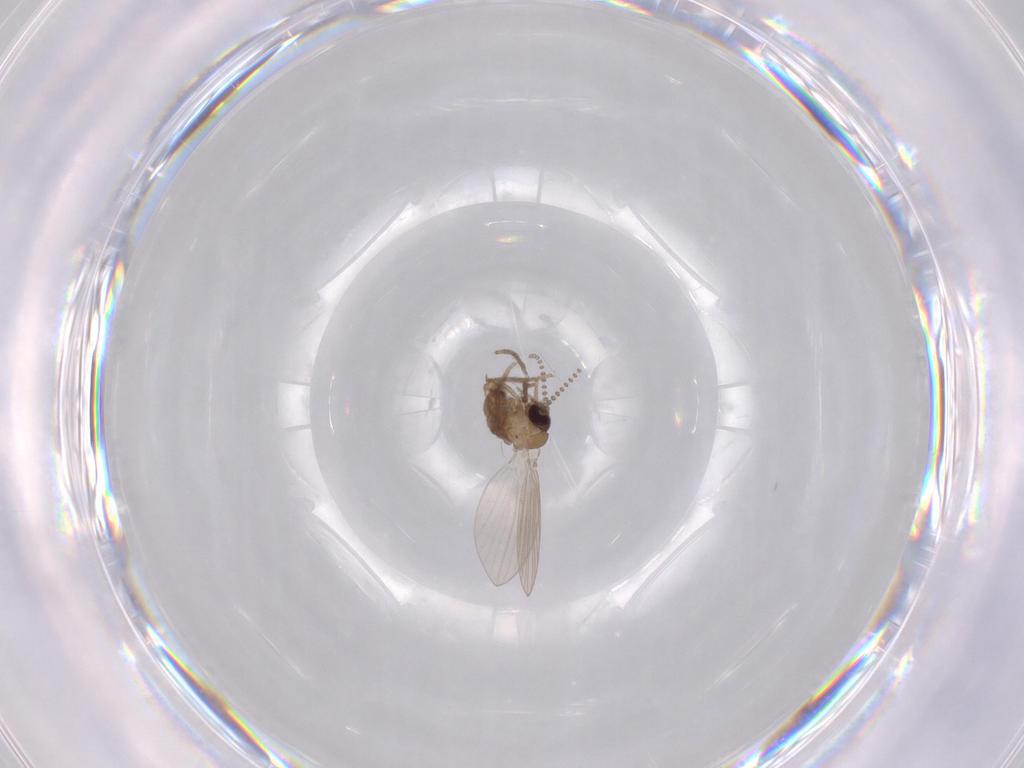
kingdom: Animalia
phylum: Arthropoda
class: Insecta
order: Diptera
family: Psychodidae
